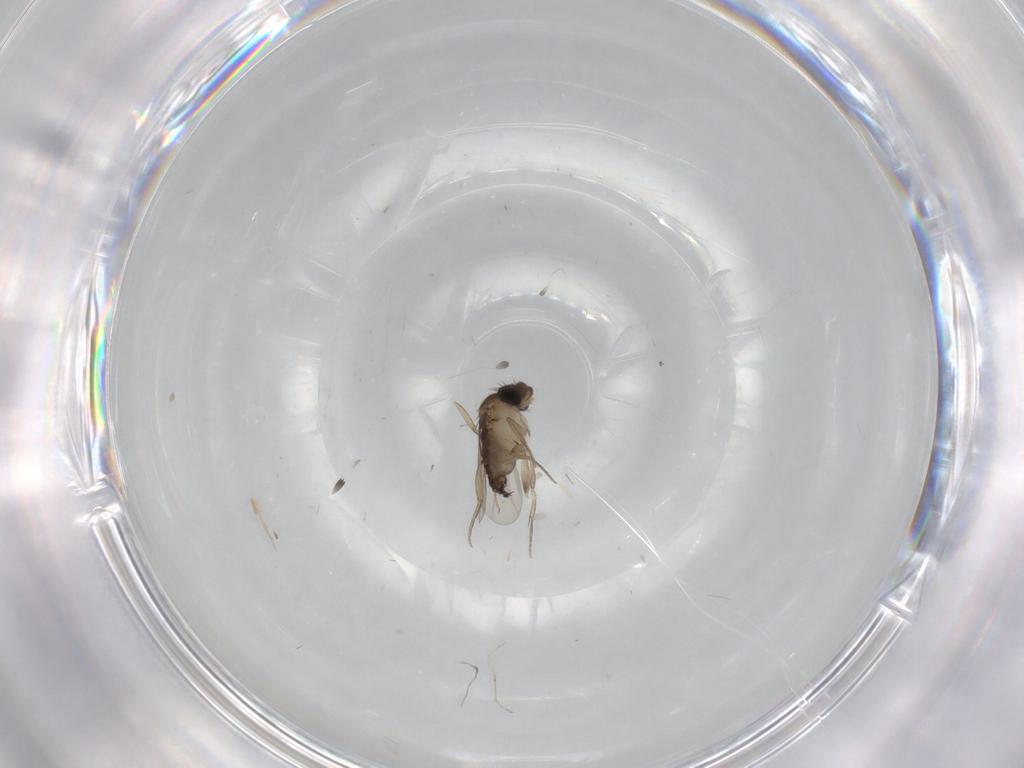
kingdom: Animalia
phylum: Arthropoda
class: Insecta
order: Diptera
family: Phoridae
